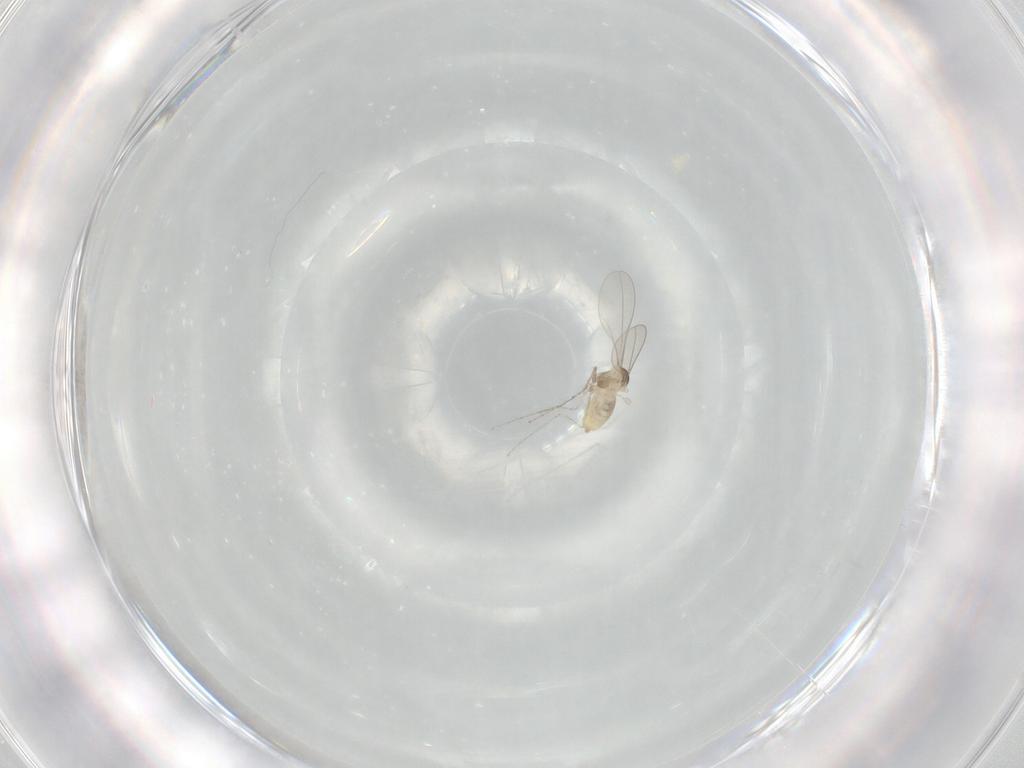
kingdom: Animalia
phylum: Arthropoda
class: Insecta
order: Diptera
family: Cecidomyiidae
